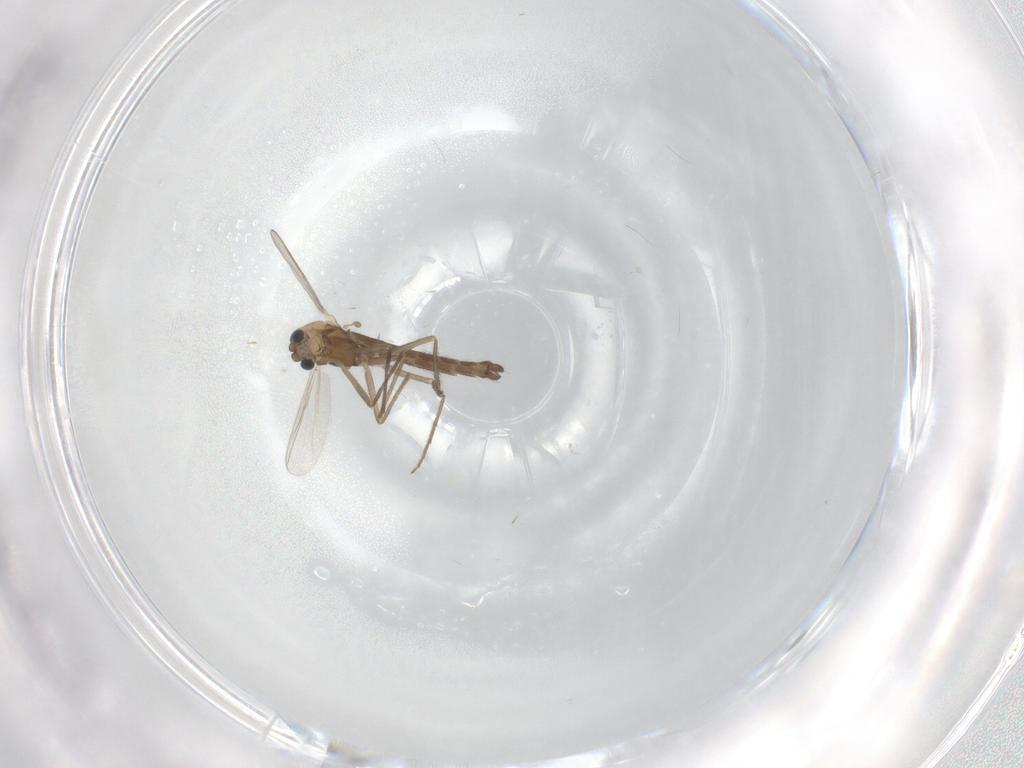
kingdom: Animalia
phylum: Arthropoda
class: Insecta
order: Diptera
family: Chironomidae
